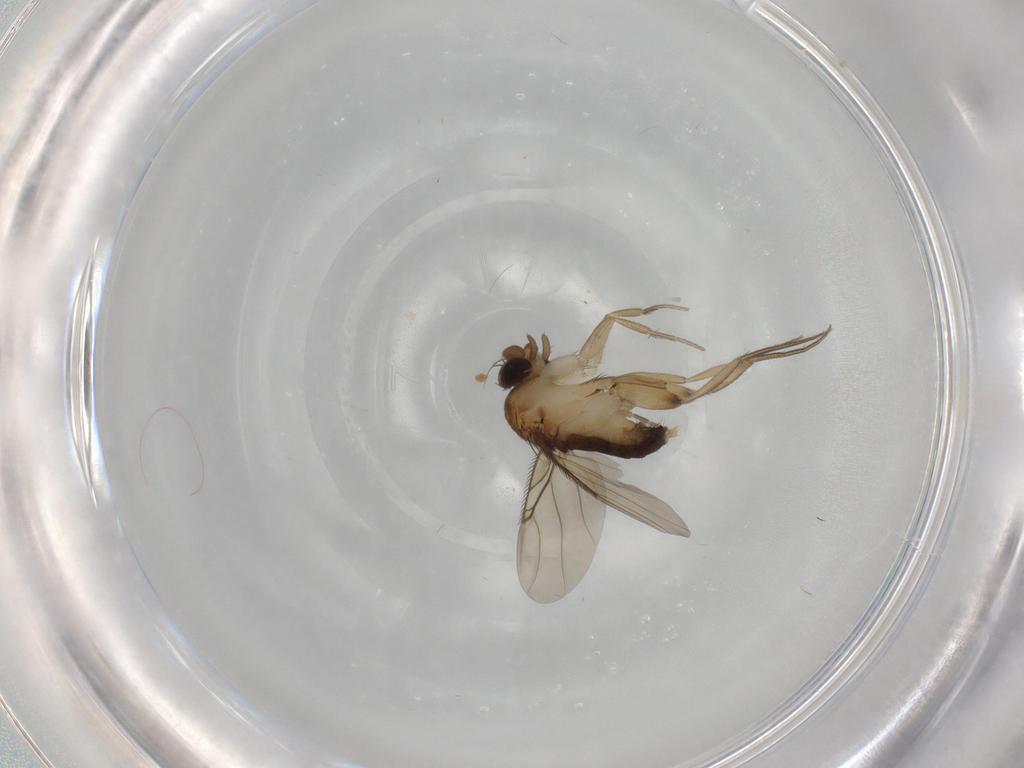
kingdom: Animalia
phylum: Arthropoda
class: Insecta
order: Diptera
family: Phoridae
